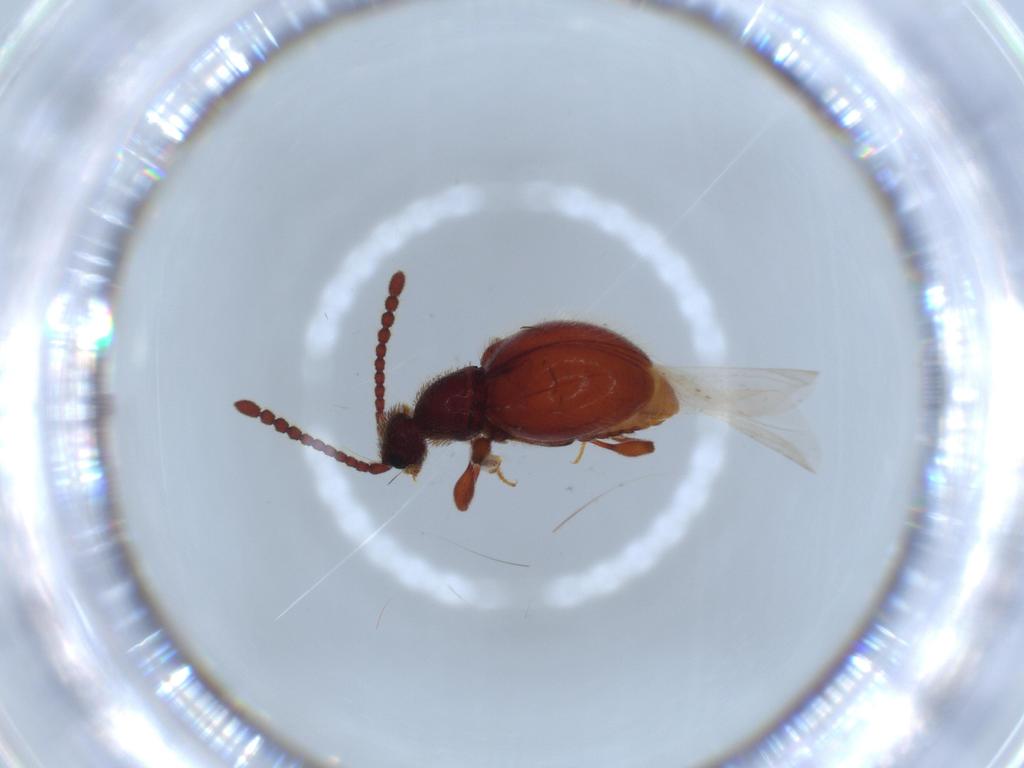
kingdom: Animalia
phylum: Arthropoda
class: Insecta
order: Coleoptera
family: Staphylinidae
